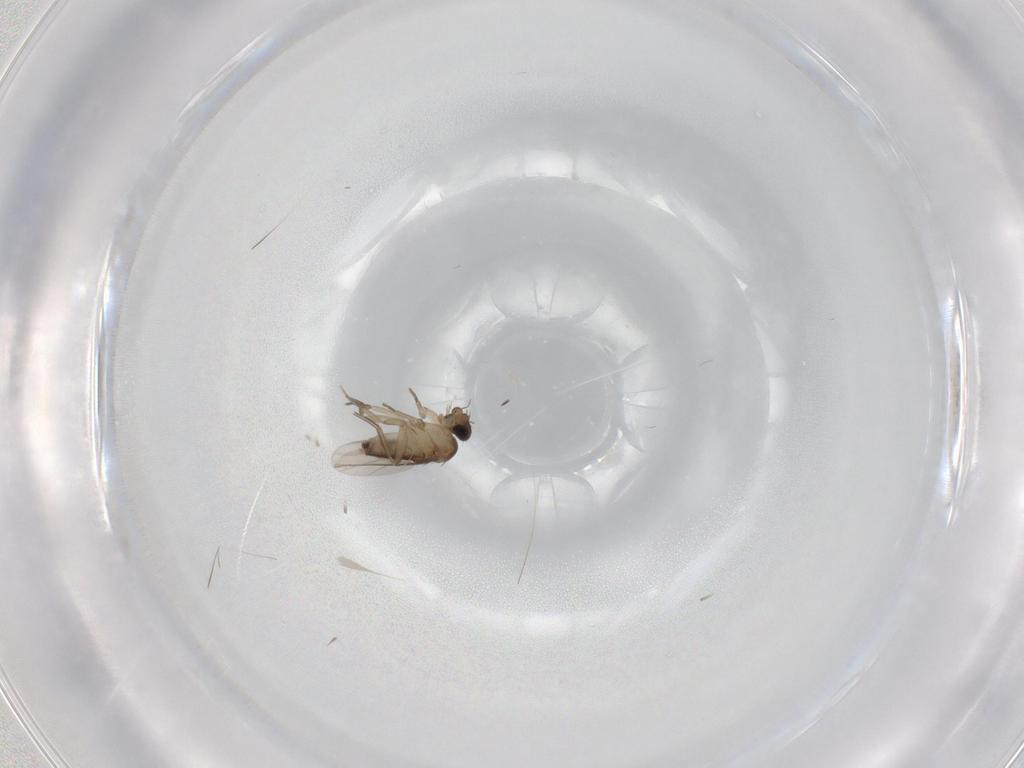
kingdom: Animalia
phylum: Arthropoda
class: Insecta
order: Diptera
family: Phoridae
